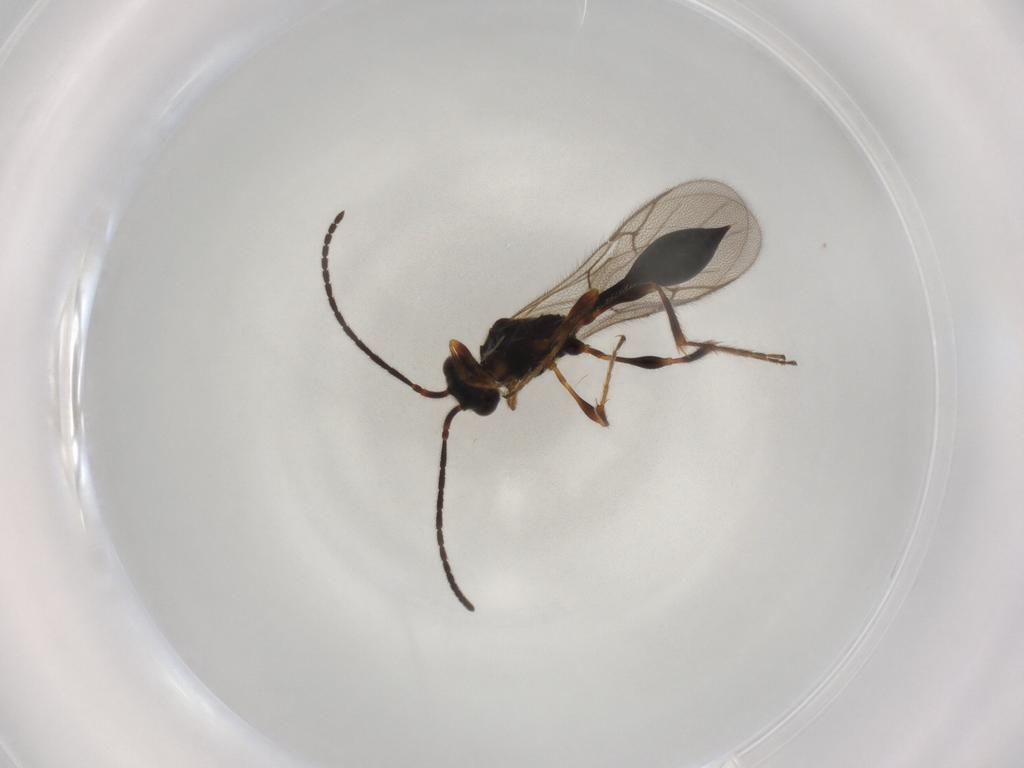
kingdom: Animalia
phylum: Arthropoda
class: Insecta
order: Hymenoptera
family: Diapriidae
